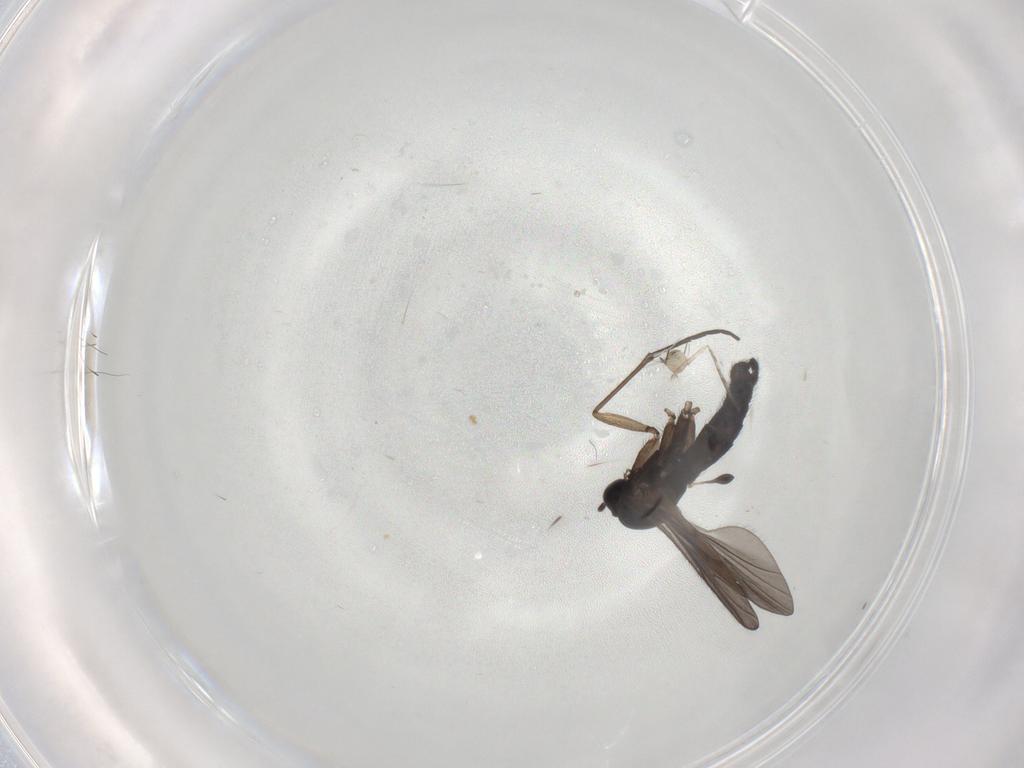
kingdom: Animalia
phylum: Arthropoda
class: Insecta
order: Diptera
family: Sciaridae
